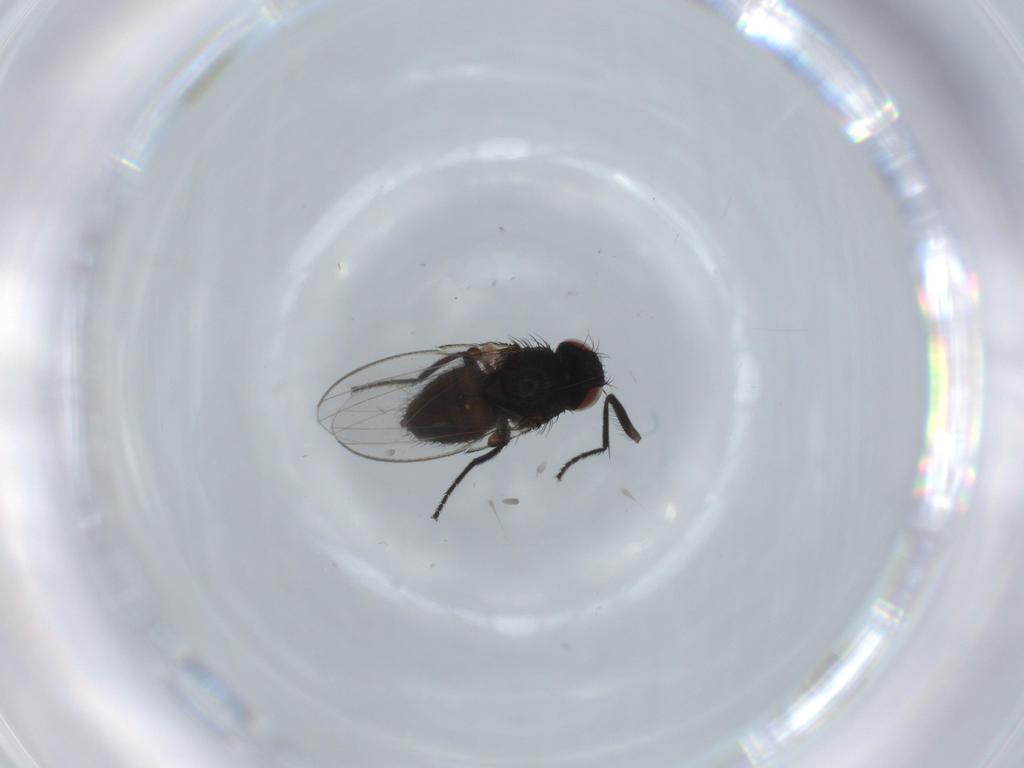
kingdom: Animalia
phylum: Arthropoda
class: Insecta
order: Diptera
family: Milichiidae
